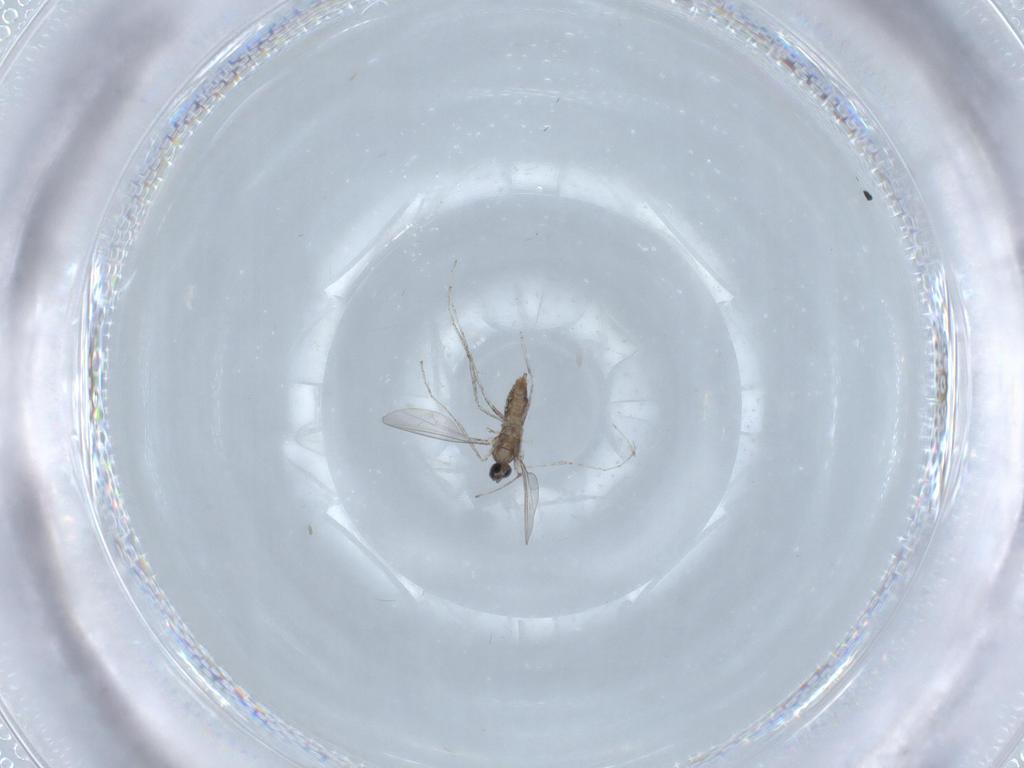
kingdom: Animalia
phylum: Arthropoda
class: Insecta
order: Diptera
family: Cecidomyiidae
